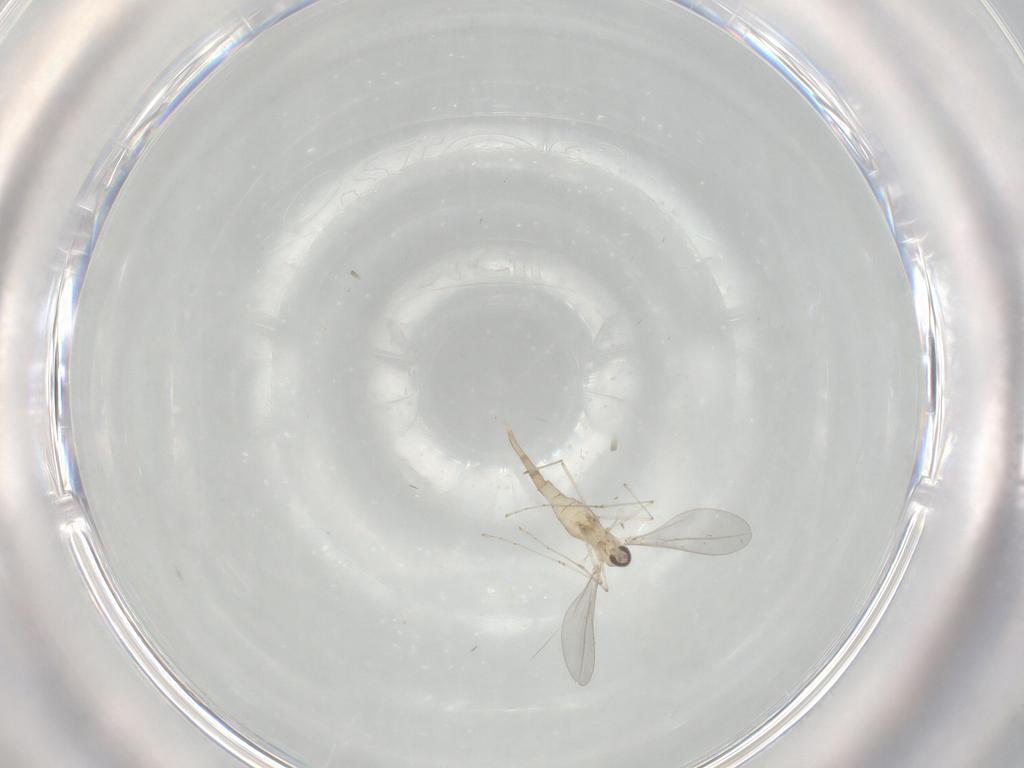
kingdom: Animalia
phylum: Arthropoda
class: Insecta
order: Diptera
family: Cecidomyiidae
